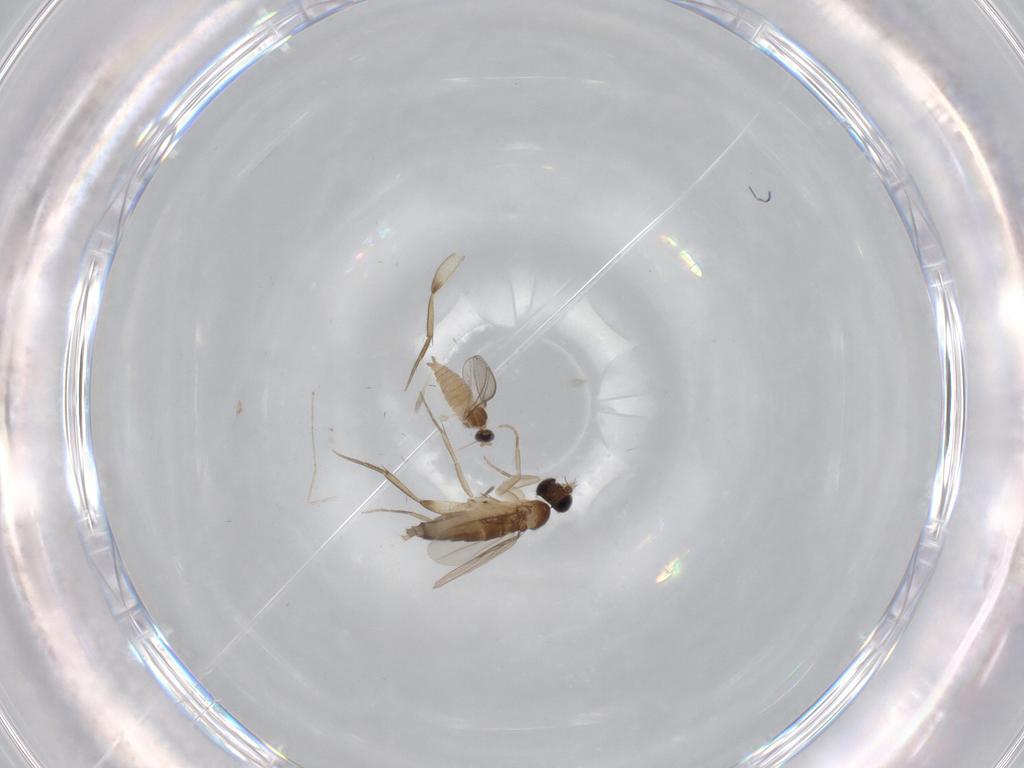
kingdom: Animalia
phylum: Arthropoda
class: Insecta
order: Diptera
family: Phoridae
